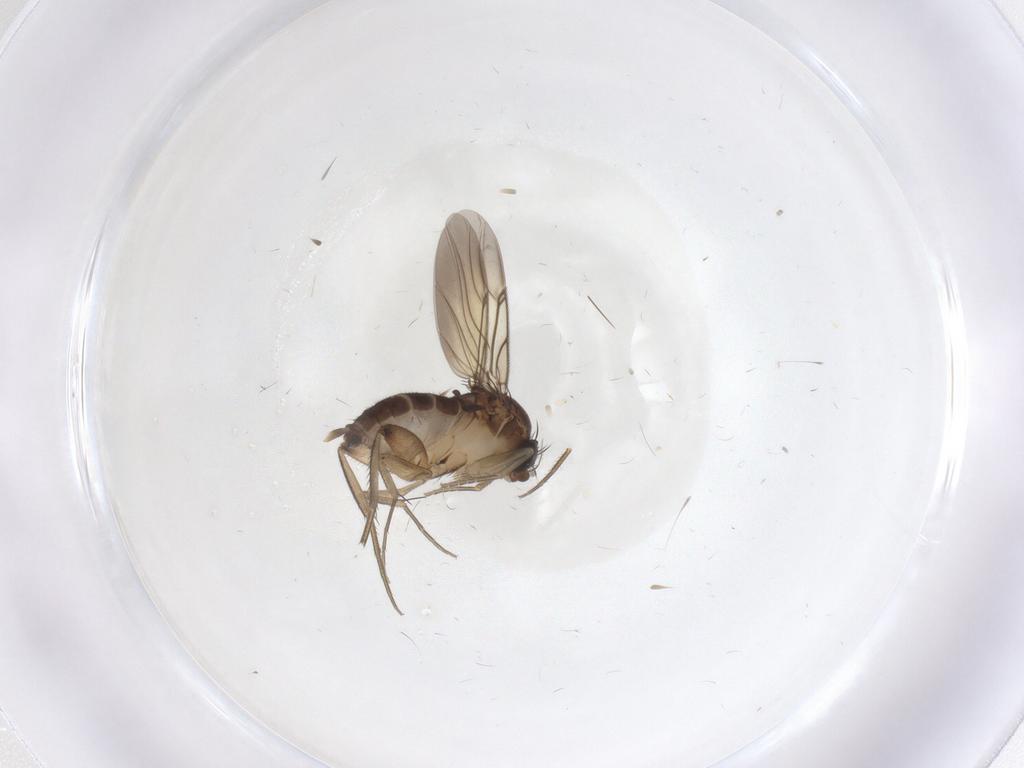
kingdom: Animalia
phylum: Arthropoda
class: Insecta
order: Diptera
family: Phoridae
